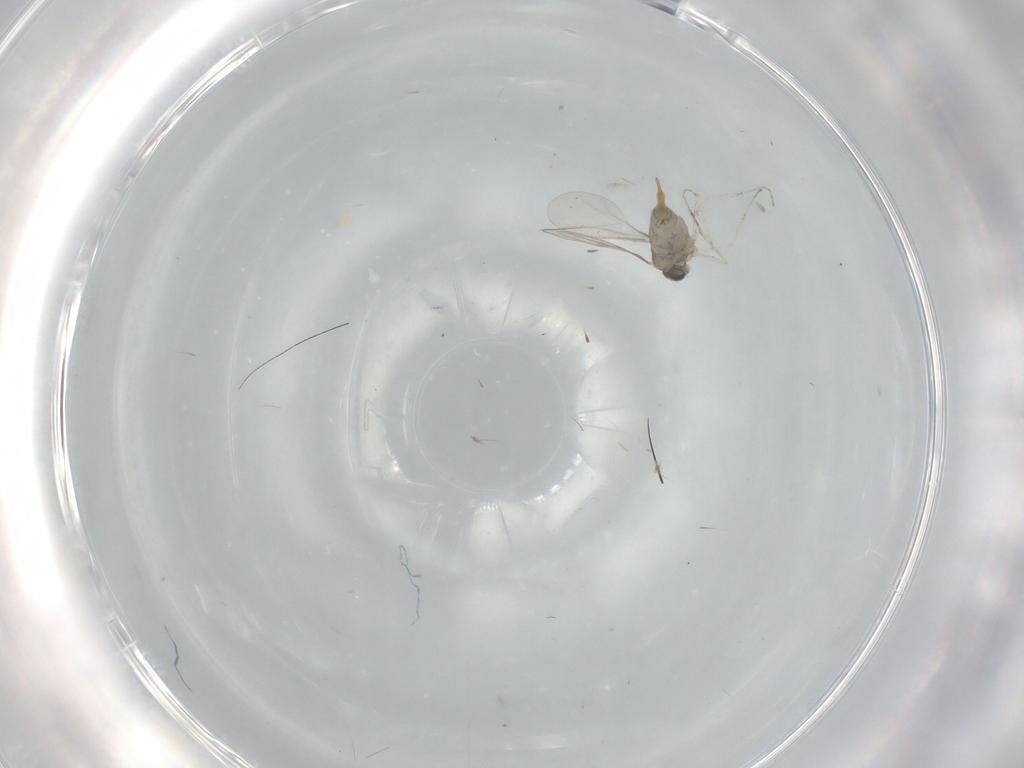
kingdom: Animalia
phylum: Arthropoda
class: Insecta
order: Diptera
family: Cecidomyiidae
